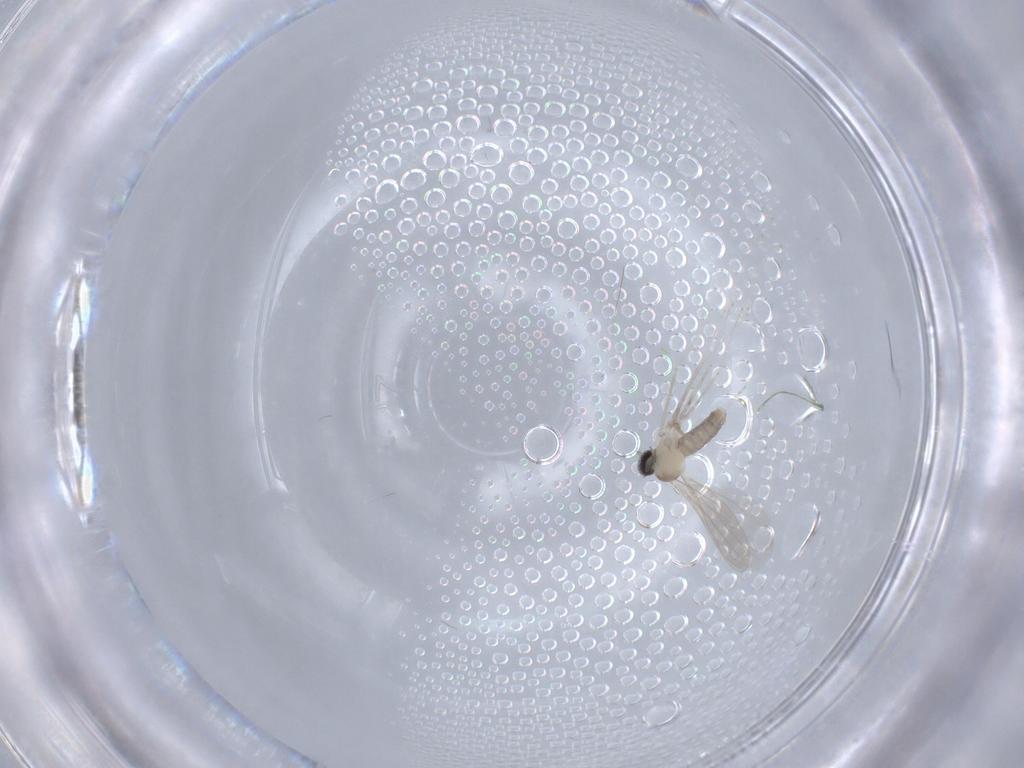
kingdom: Animalia
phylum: Arthropoda
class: Insecta
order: Diptera
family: Cecidomyiidae
